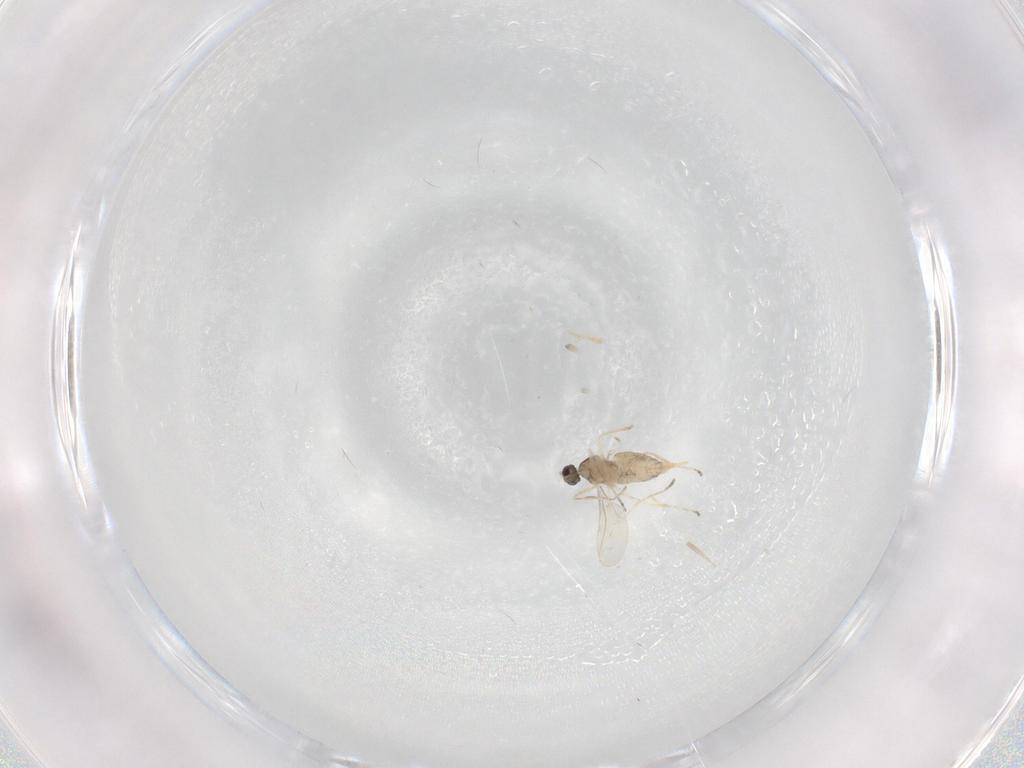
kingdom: Animalia
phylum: Arthropoda
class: Insecta
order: Diptera
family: Cecidomyiidae
